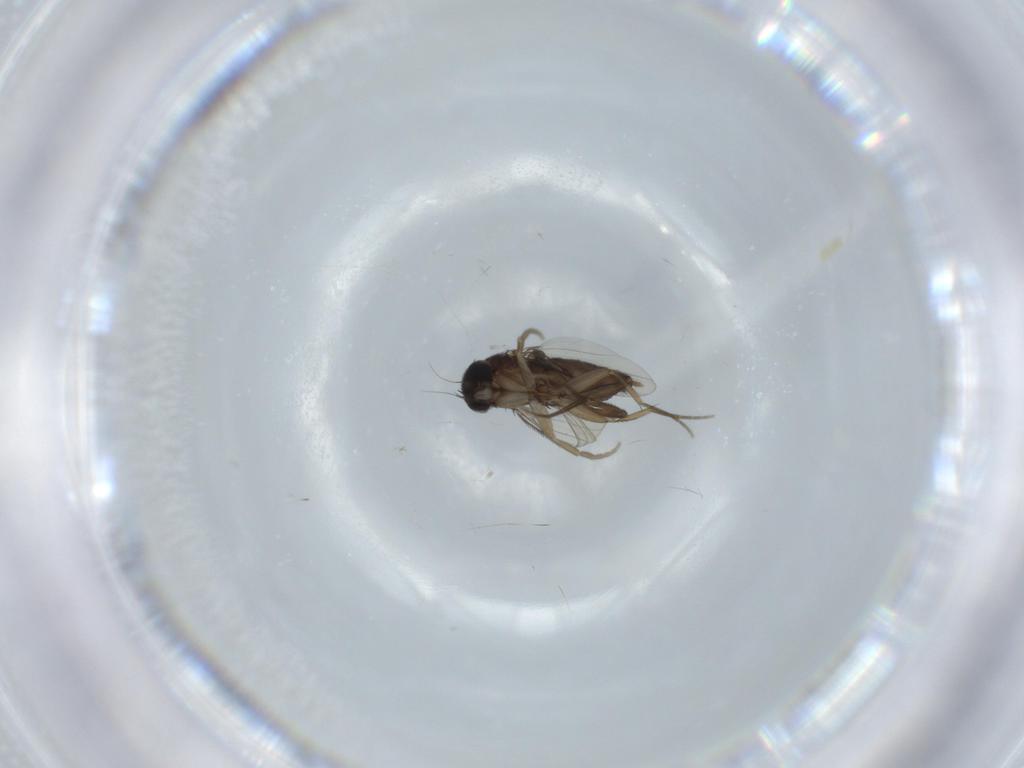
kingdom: Animalia
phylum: Arthropoda
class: Insecta
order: Diptera
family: Phoridae
